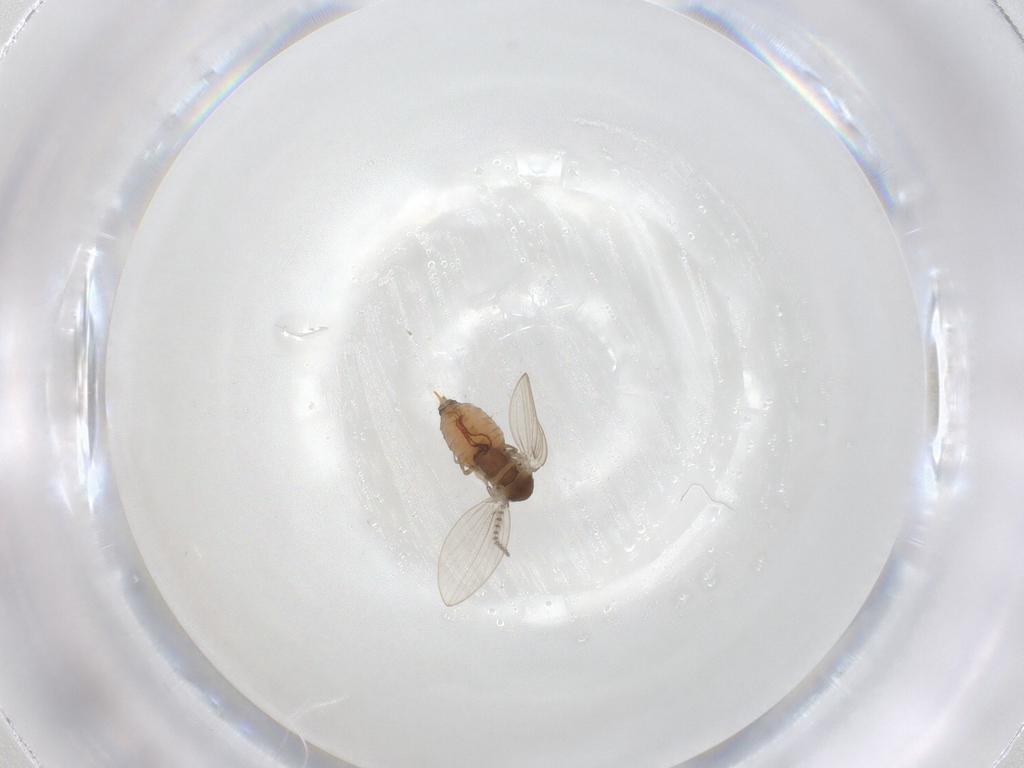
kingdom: Animalia
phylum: Arthropoda
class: Insecta
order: Diptera
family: Psychodidae
